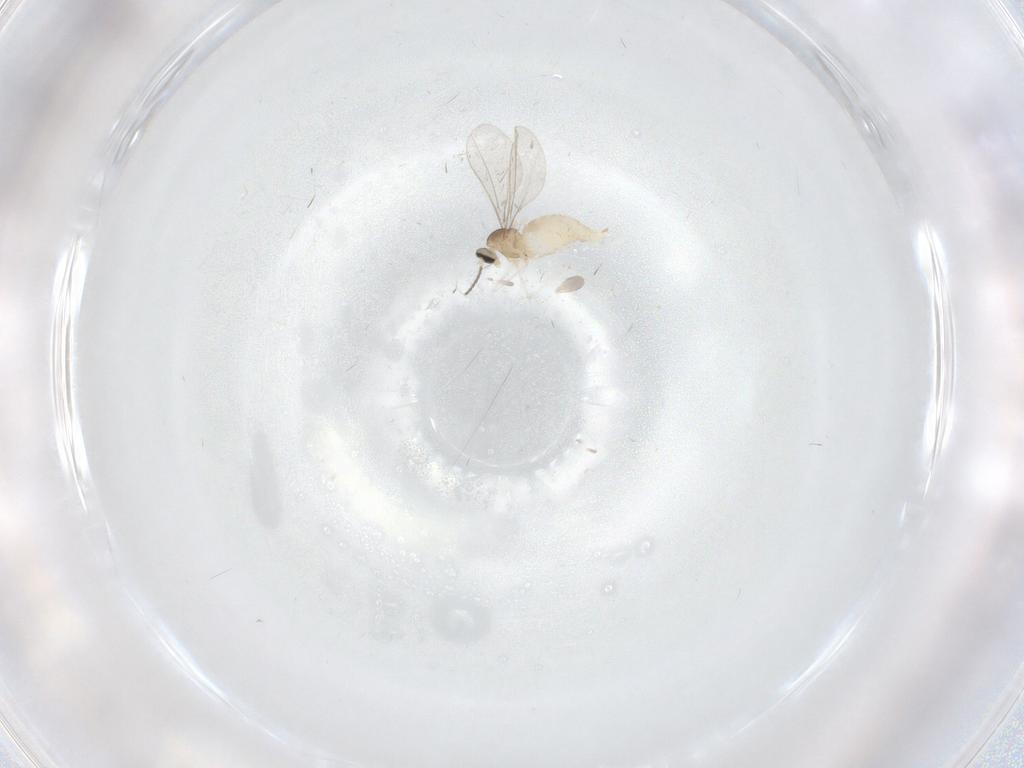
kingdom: Animalia
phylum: Arthropoda
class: Insecta
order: Diptera
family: Cecidomyiidae
